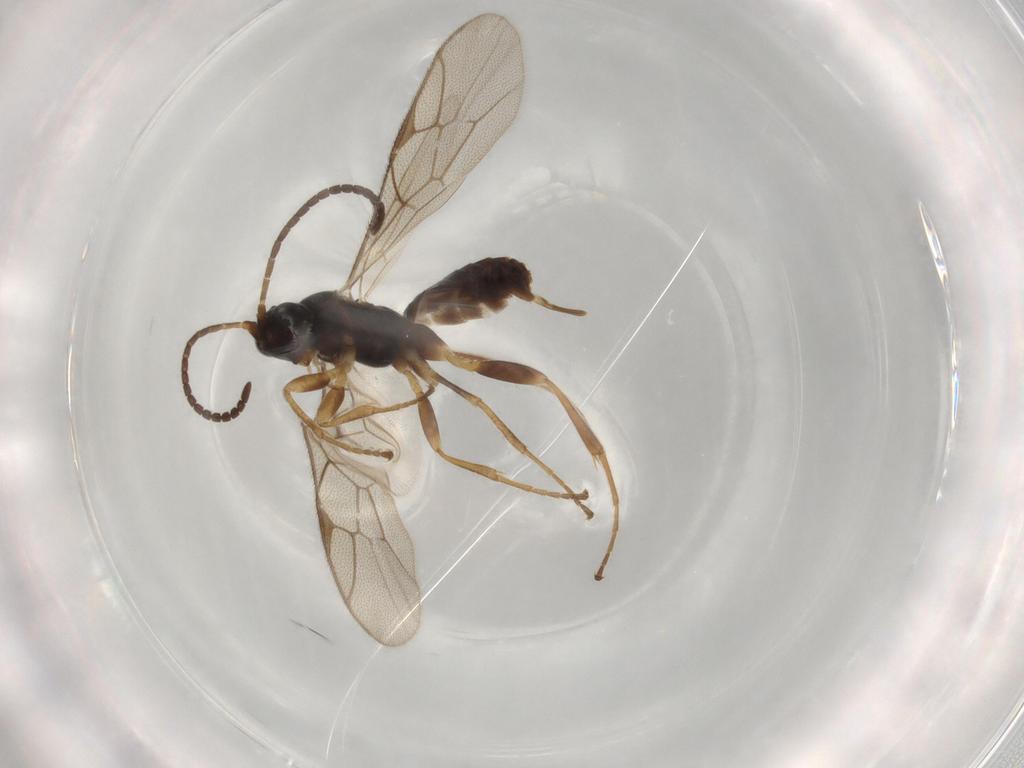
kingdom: Animalia
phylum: Arthropoda
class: Insecta
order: Hymenoptera
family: Ichneumonidae
